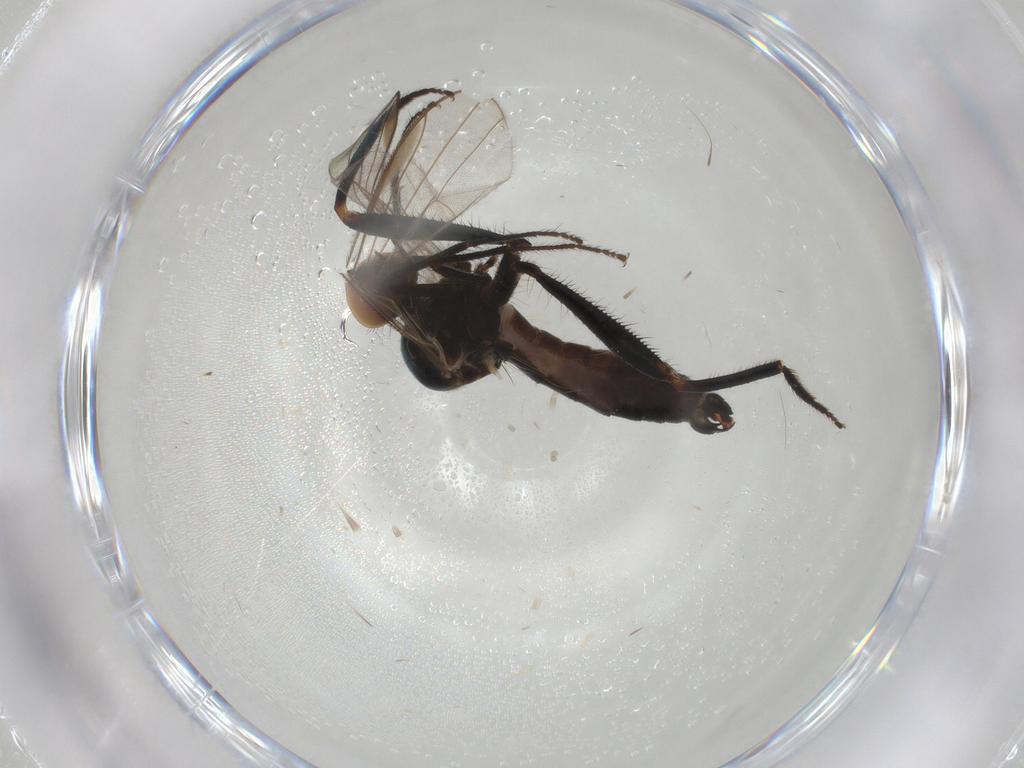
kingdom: Animalia
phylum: Arthropoda
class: Insecta
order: Diptera
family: Hybotidae
